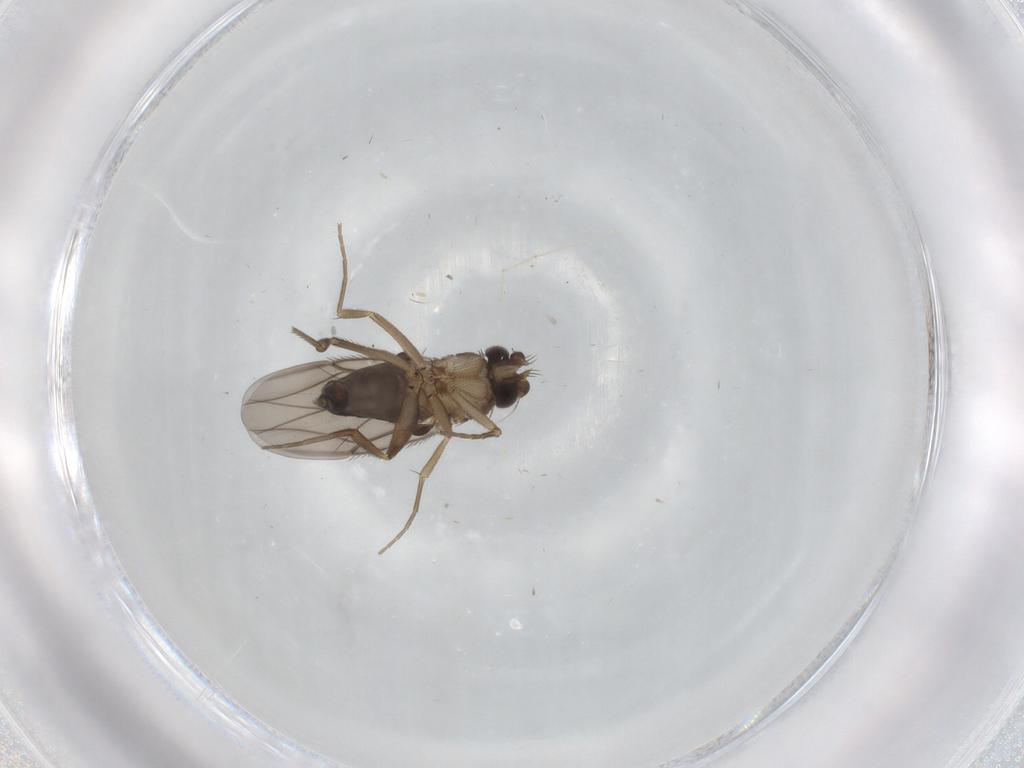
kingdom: Animalia
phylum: Arthropoda
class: Insecta
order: Diptera
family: Phoridae
